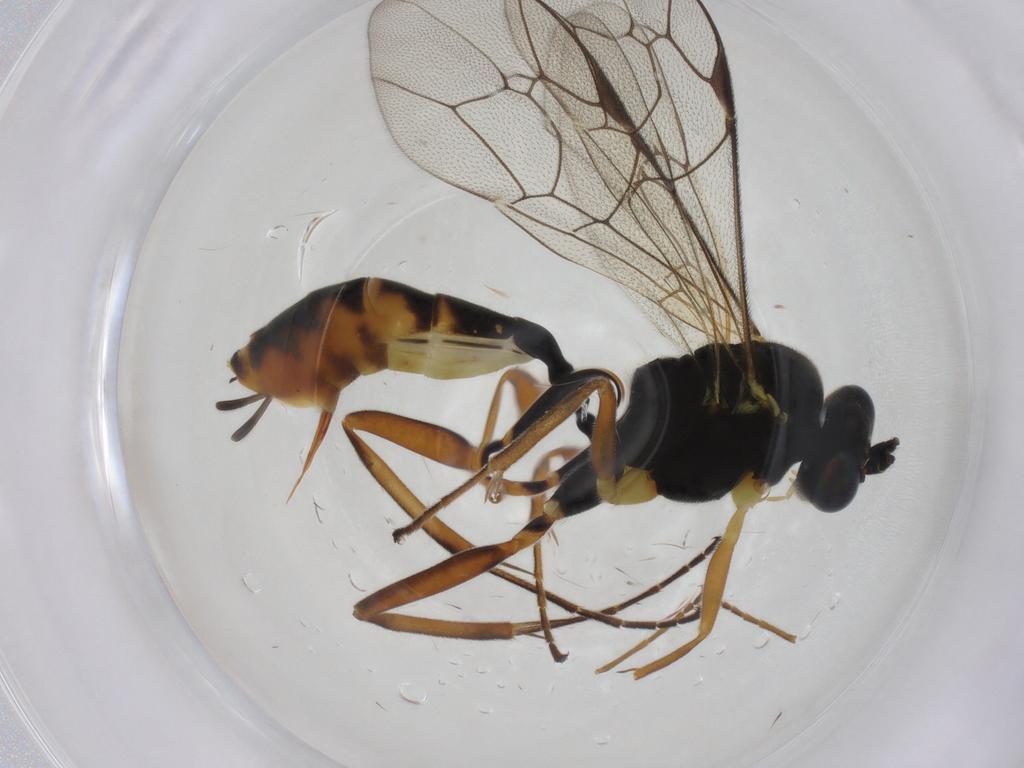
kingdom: Animalia
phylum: Arthropoda
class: Insecta
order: Hymenoptera
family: Ichneumonidae
